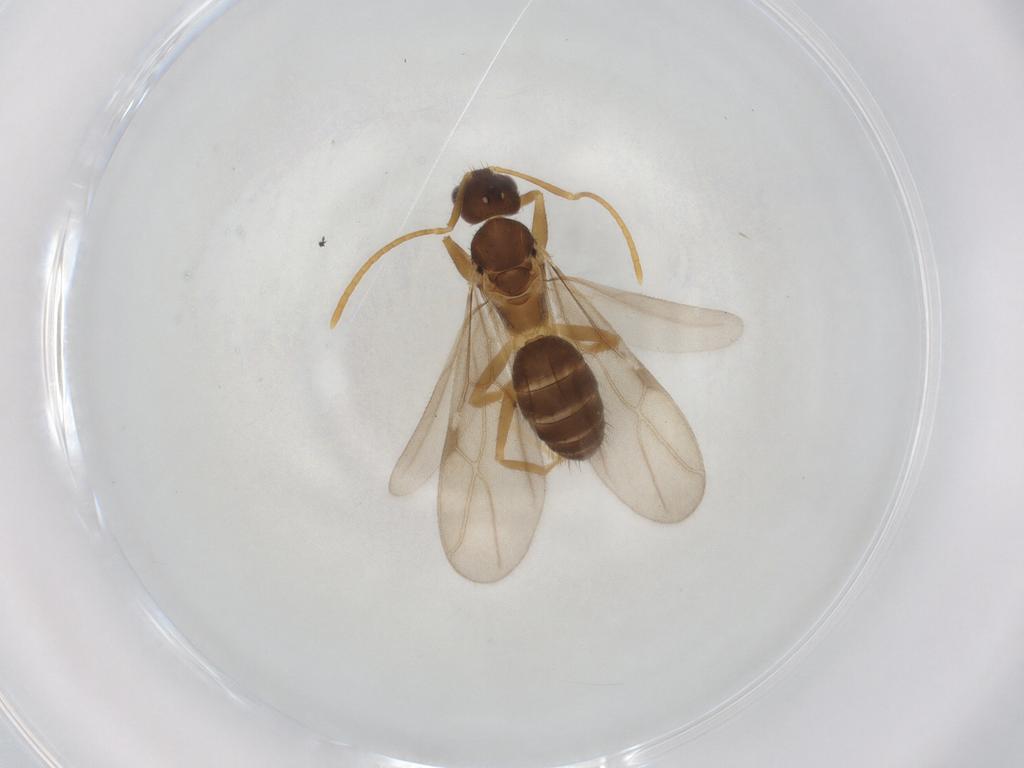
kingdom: Animalia
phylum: Arthropoda
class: Insecta
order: Hymenoptera
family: Formicidae
